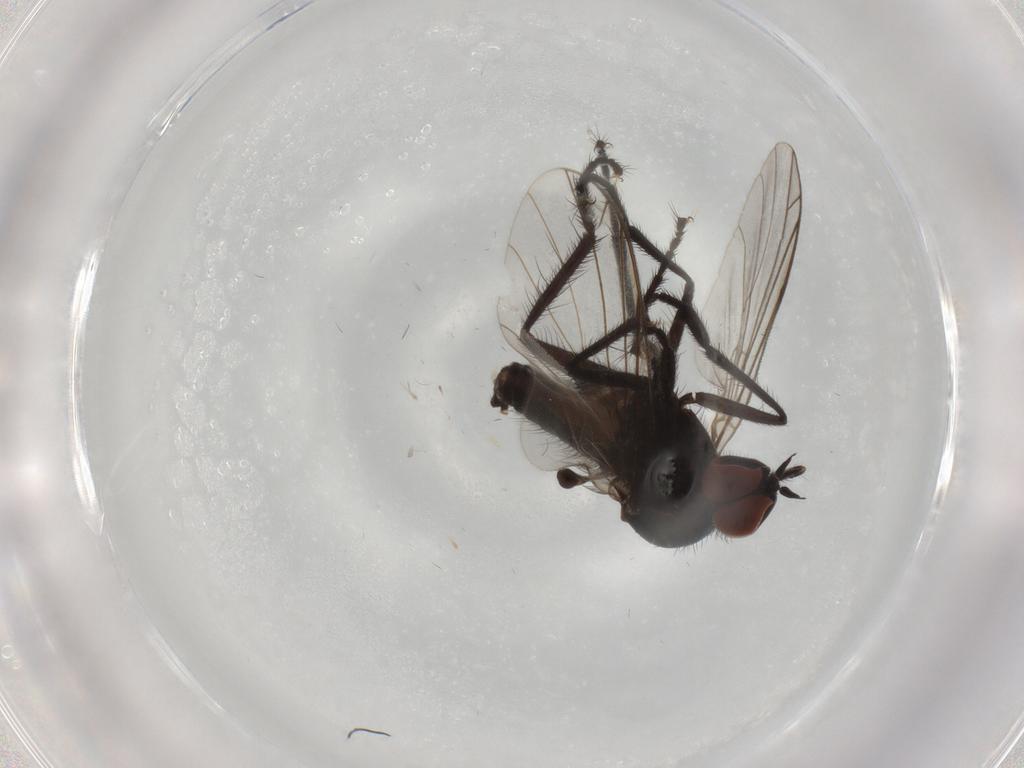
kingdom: Animalia
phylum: Arthropoda
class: Insecta
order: Diptera
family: Empididae
